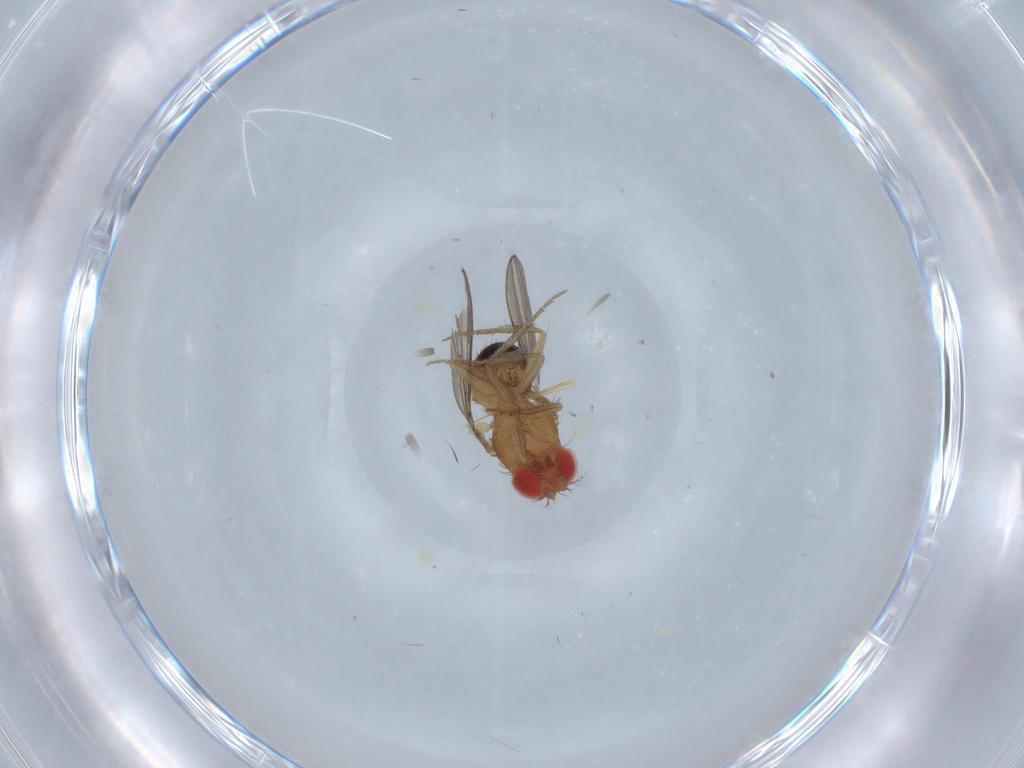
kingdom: Animalia
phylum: Arthropoda
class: Insecta
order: Diptera
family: Drosophilidae
